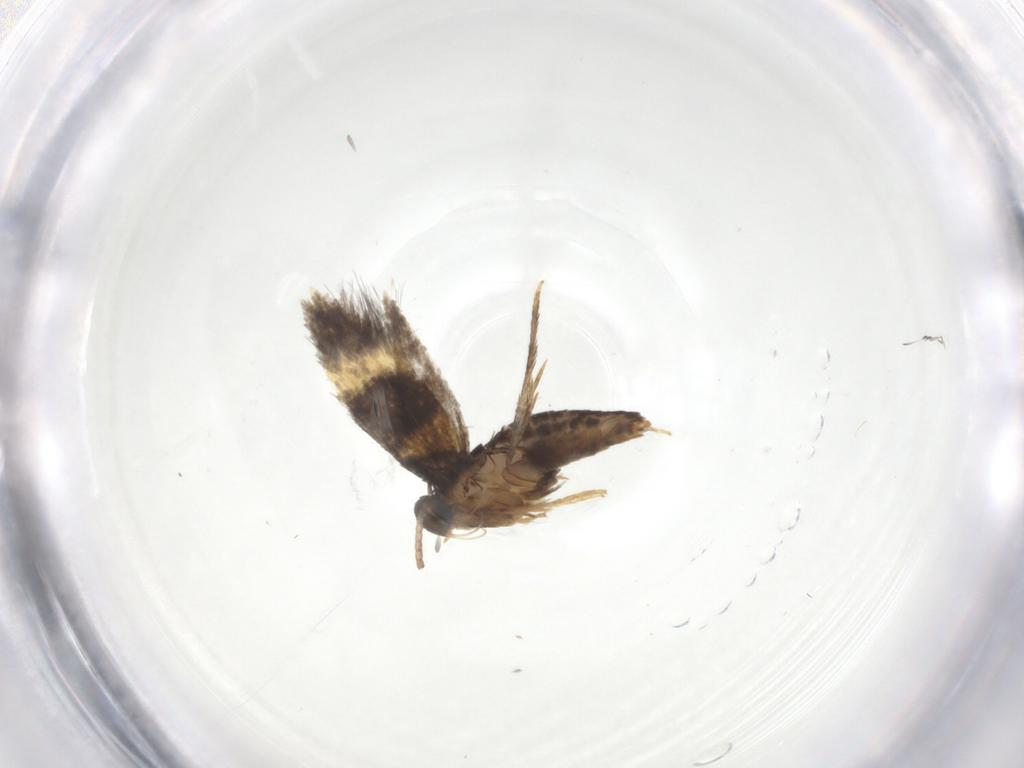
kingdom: Animalia
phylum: Arthropoda
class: Insecta
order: Lepidoptera
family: Heliozelidae
